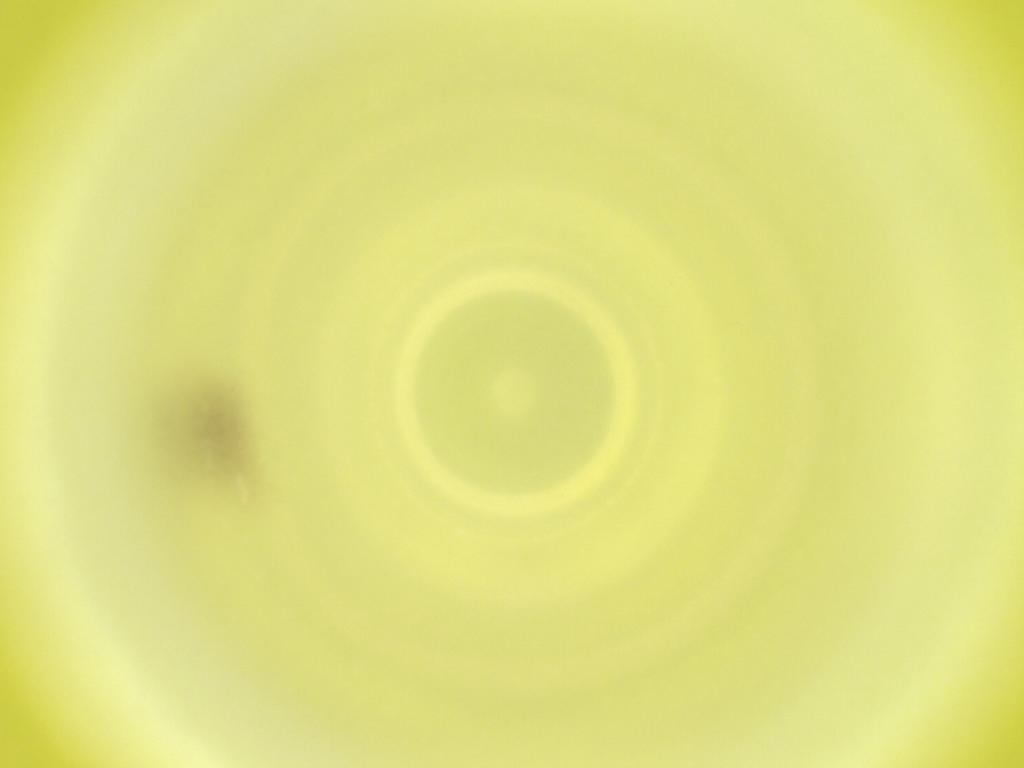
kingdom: Animalia
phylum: Arthropoda
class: Insecta
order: Diptera
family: Cecidomyiidae
